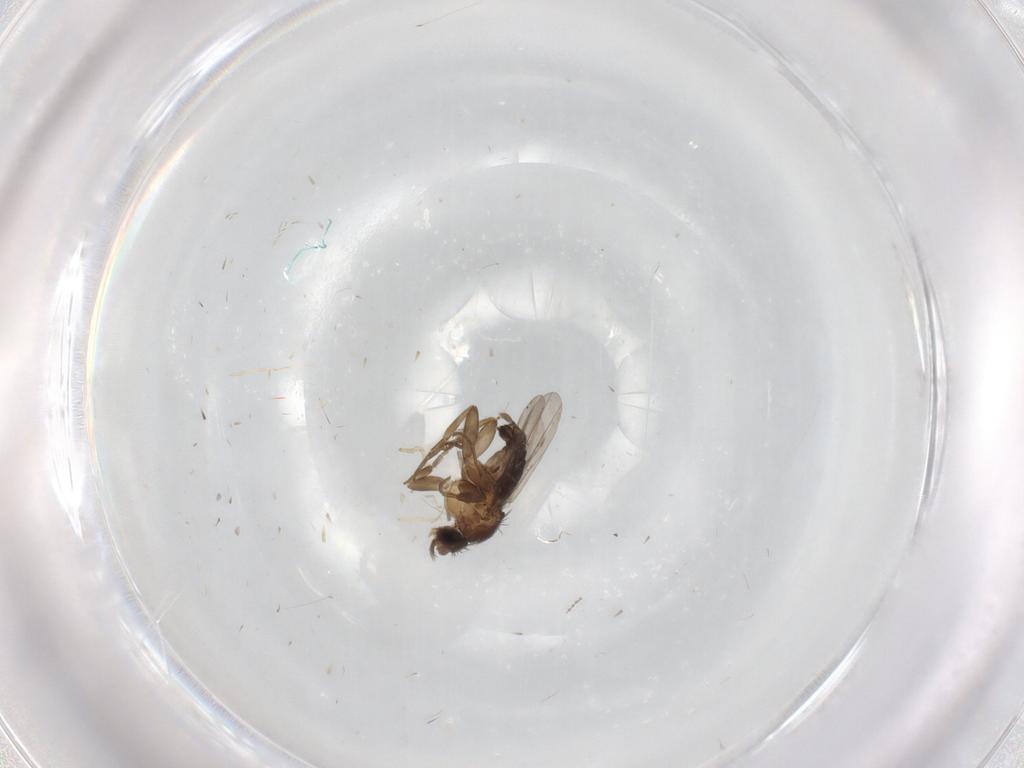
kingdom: Animalia
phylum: Arthropoda
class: Insecta
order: Diptera
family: Phoridae
